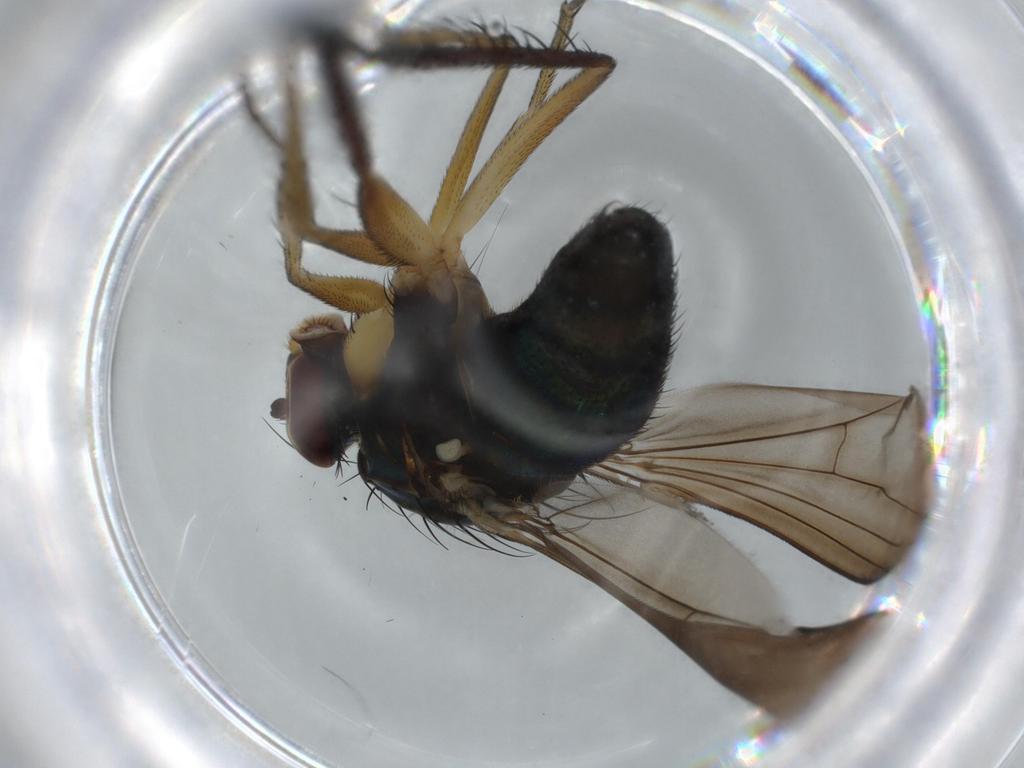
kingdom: Animalia
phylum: Arthropoda
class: Insecta
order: Diptera
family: Dolichopodidae
